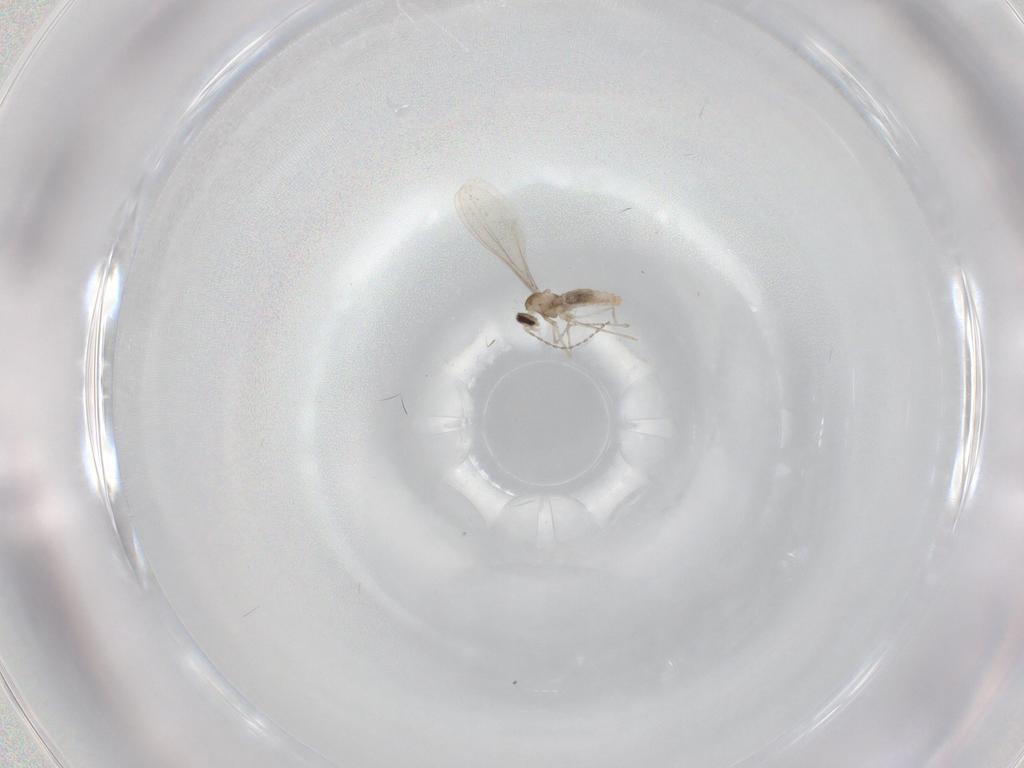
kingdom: Animalia
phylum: Arthropoda
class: Insecta
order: Diptera
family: Cecidomyiidae
